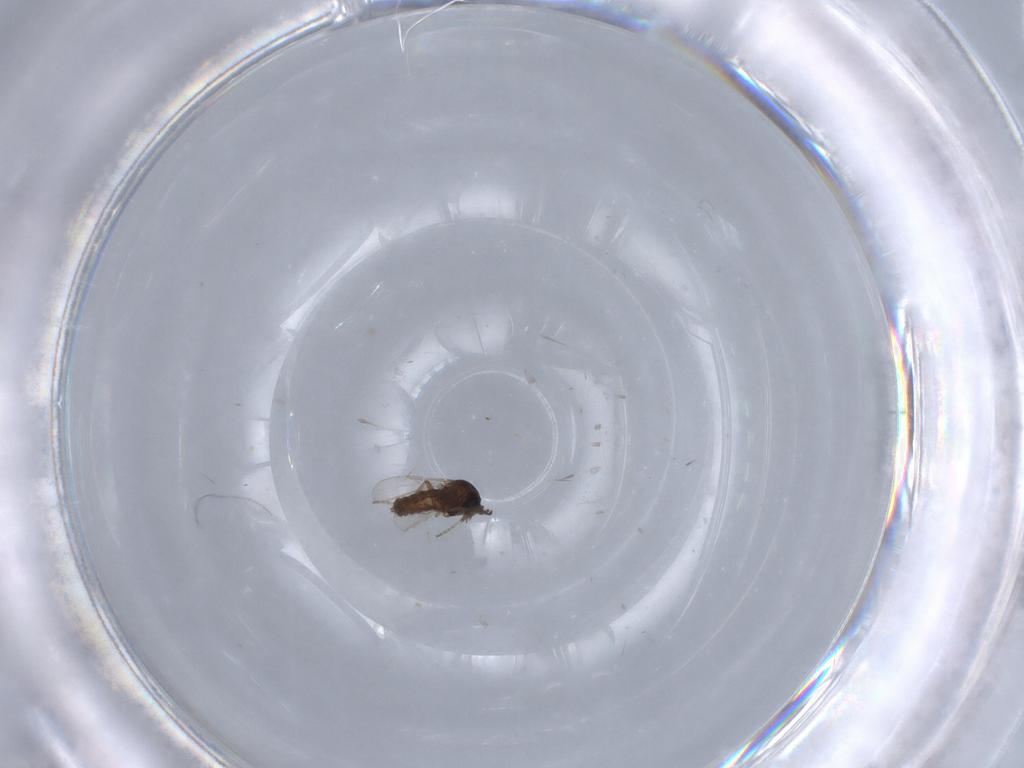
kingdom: Animalia
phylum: Arthropoda
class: Insecta
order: Diptera
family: Ceratopogonidae
